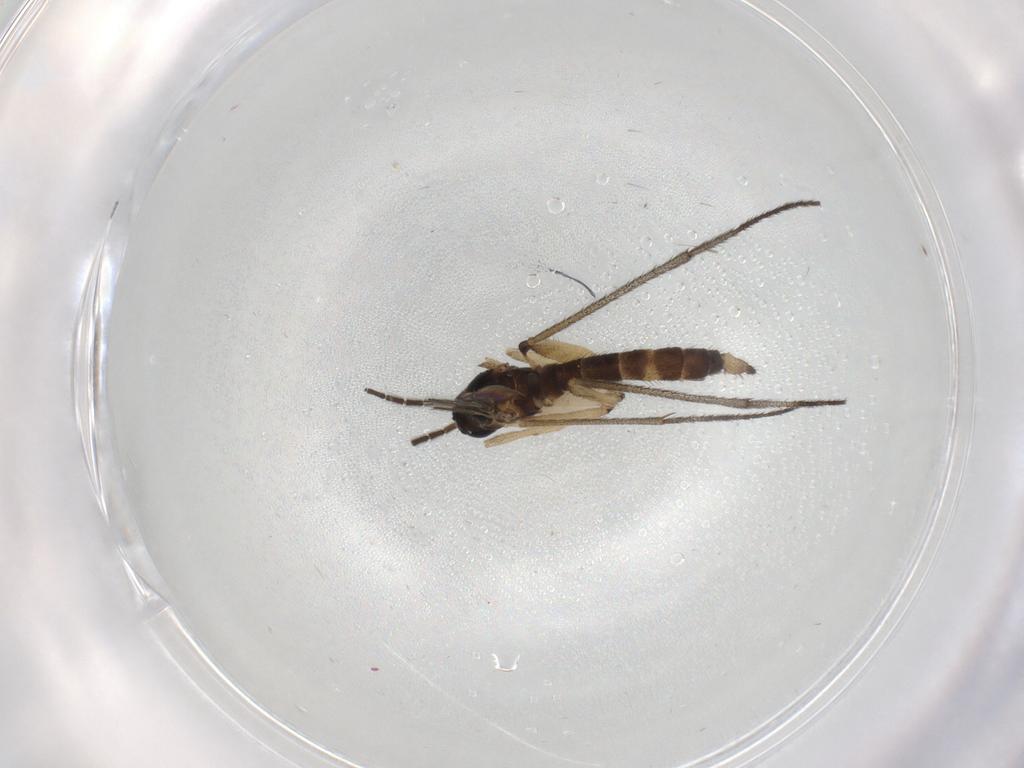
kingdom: Animalia
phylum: Arthropoda
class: Insecta
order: Diptera
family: Sciaridae
